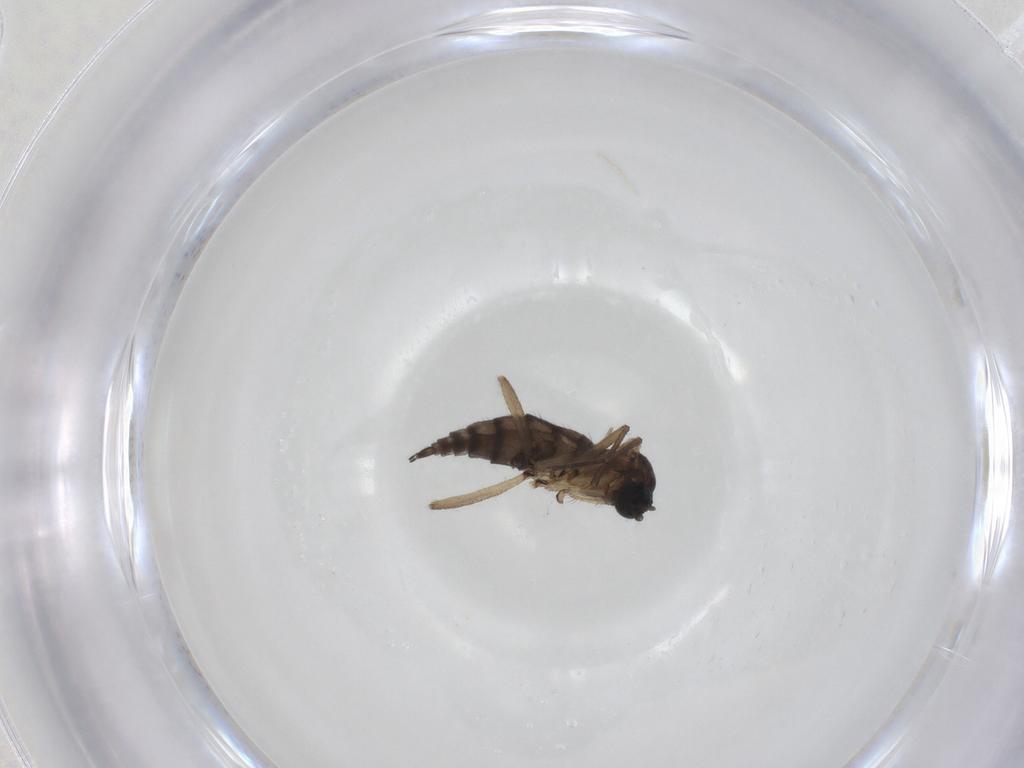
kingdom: Animalia
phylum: Arthropoda
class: Insecta
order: Diptera
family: Sciaridae
